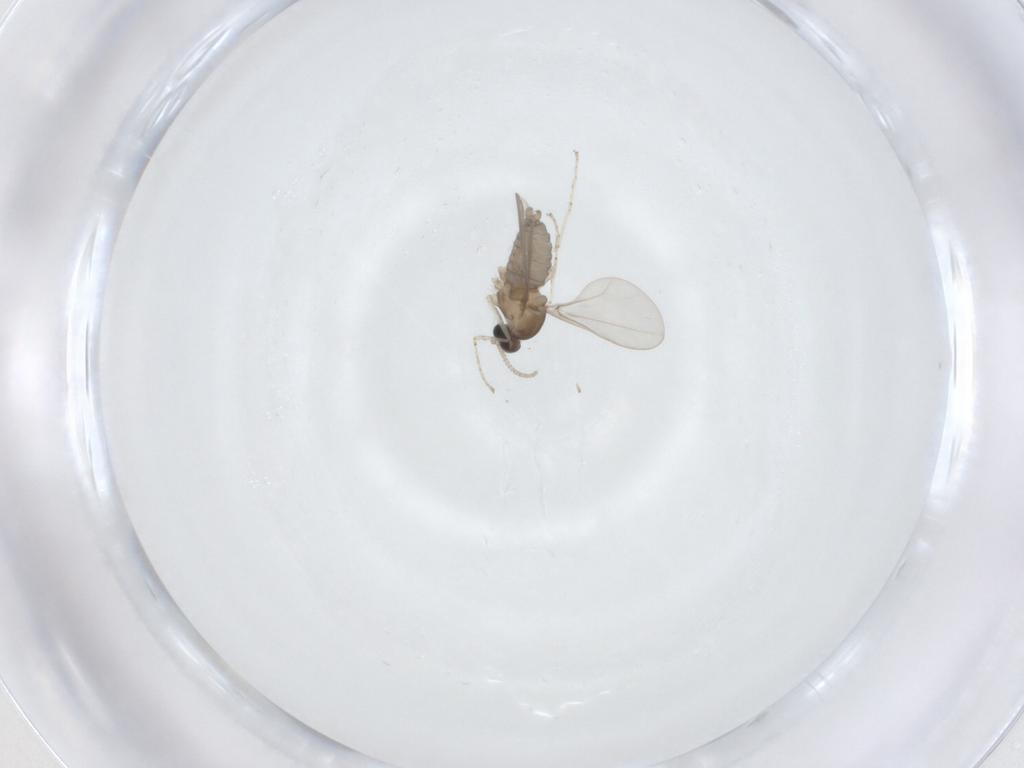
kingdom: Animalia
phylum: Arthropoda
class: Insecta
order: Diptera
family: Cecidomyiidae
